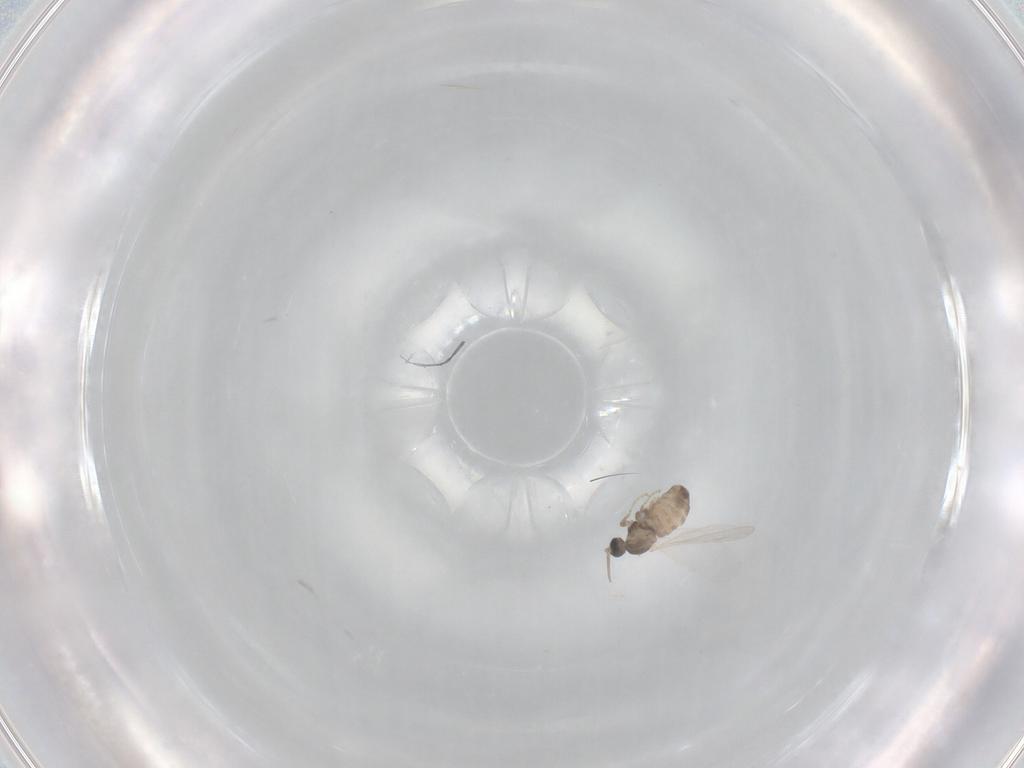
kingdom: Animalia
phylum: Arthropoda
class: Insecta
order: Diptera
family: Cecidomyiidae
